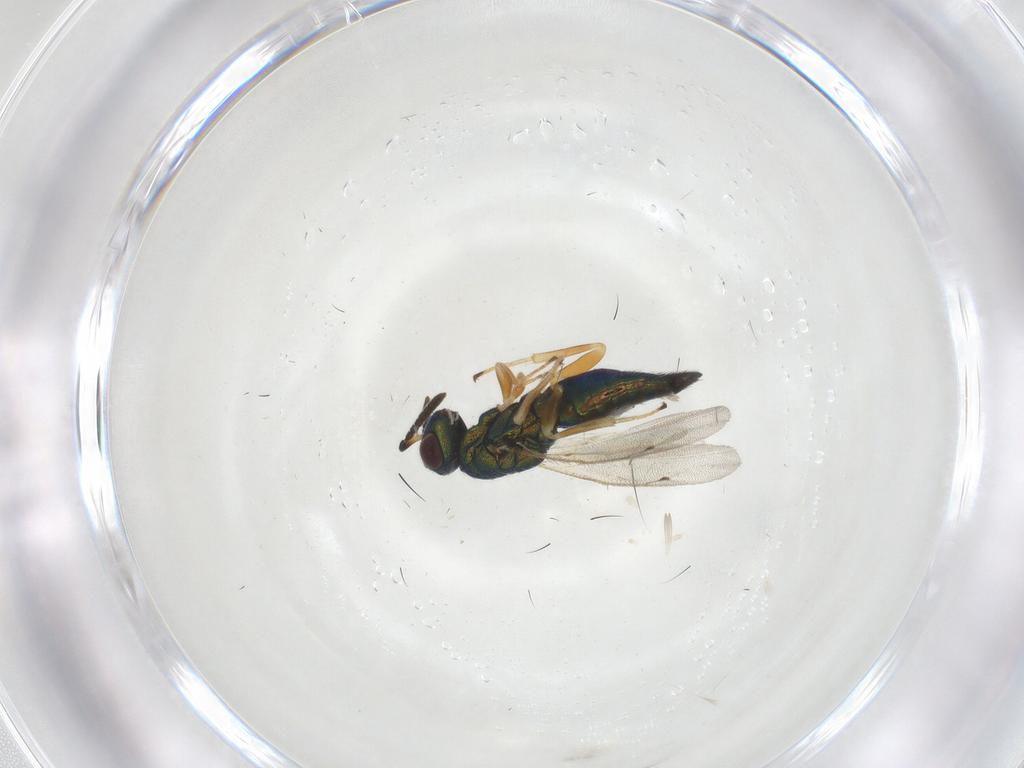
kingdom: Animalia
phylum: Arthropoda
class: Insecta
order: Hymenoptera
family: Pteromalidae
